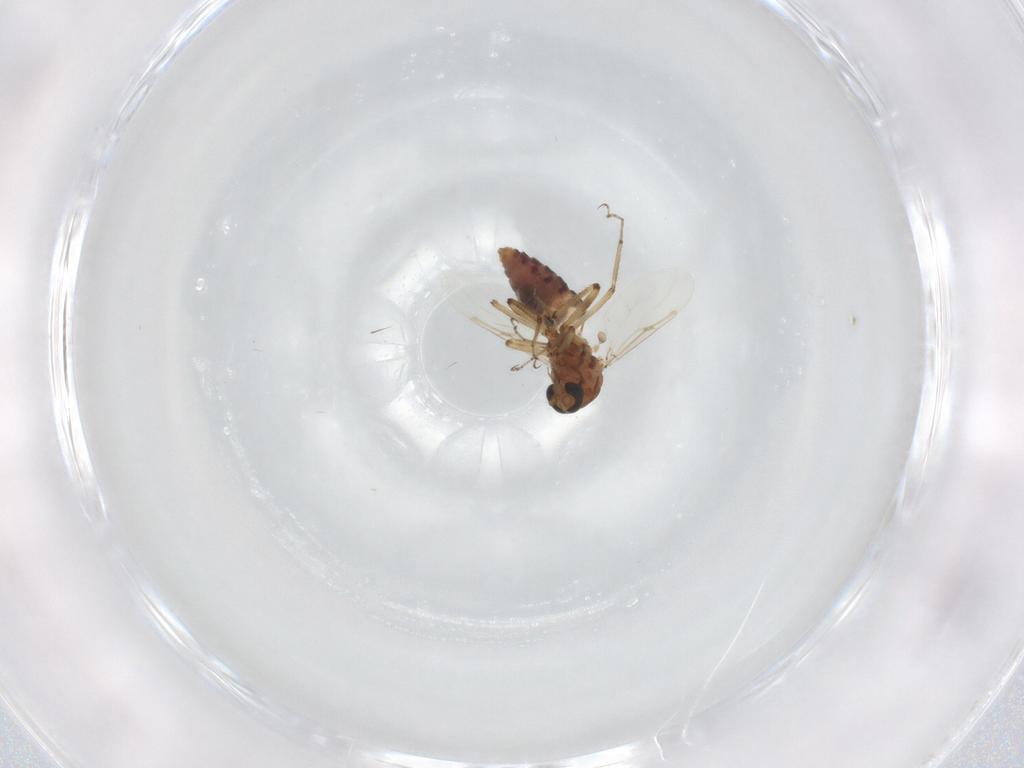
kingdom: Animalia
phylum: Arthropoda
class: Insecta
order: Diptera
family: Ceratopogonidae
